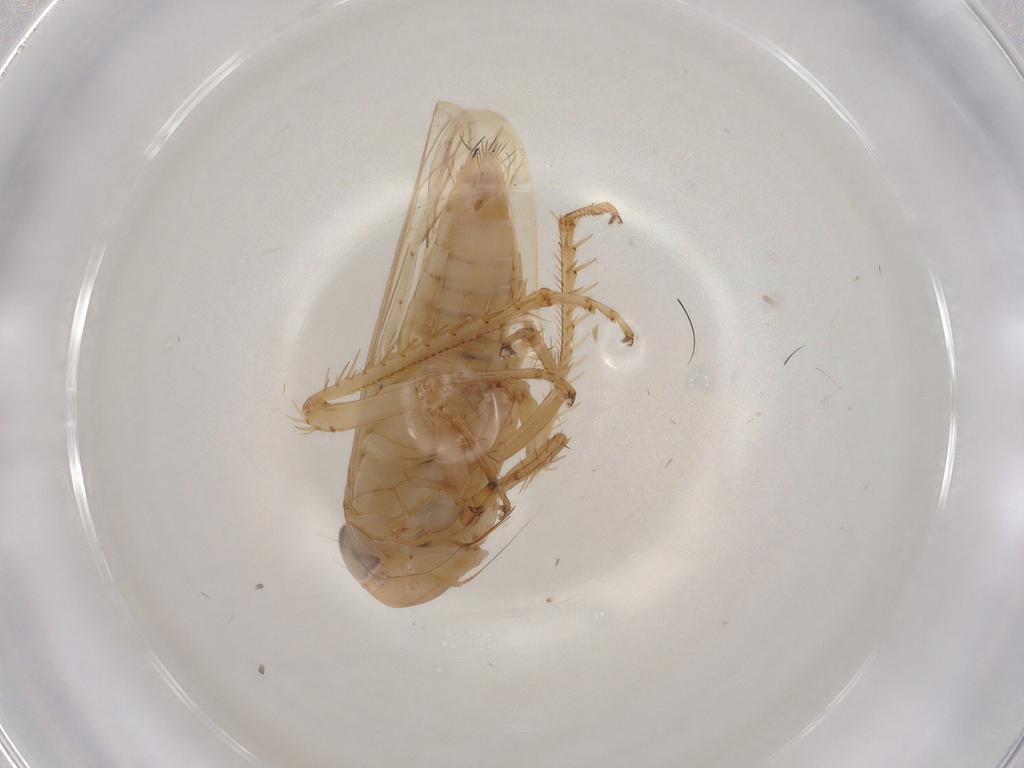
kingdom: Animalia
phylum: Arthropoda
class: Insecta
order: Hemiptera
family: Cicadellidae
